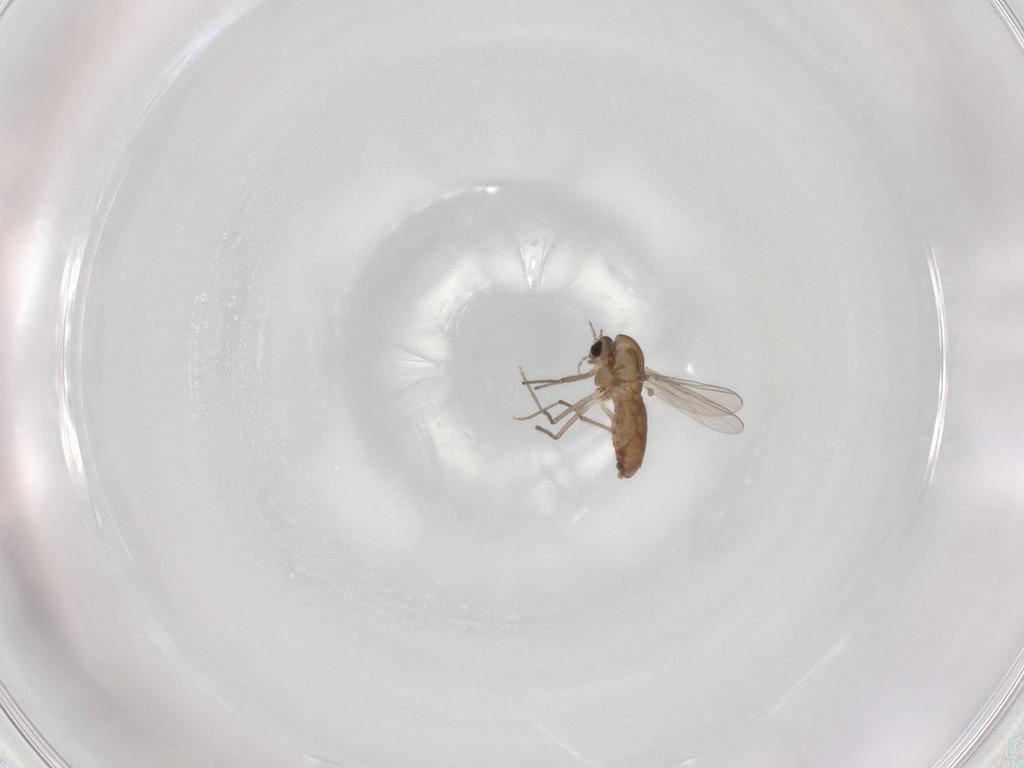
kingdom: Animalia
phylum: Arthropoda
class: Insecta
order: Diptera
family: Chironomidae
